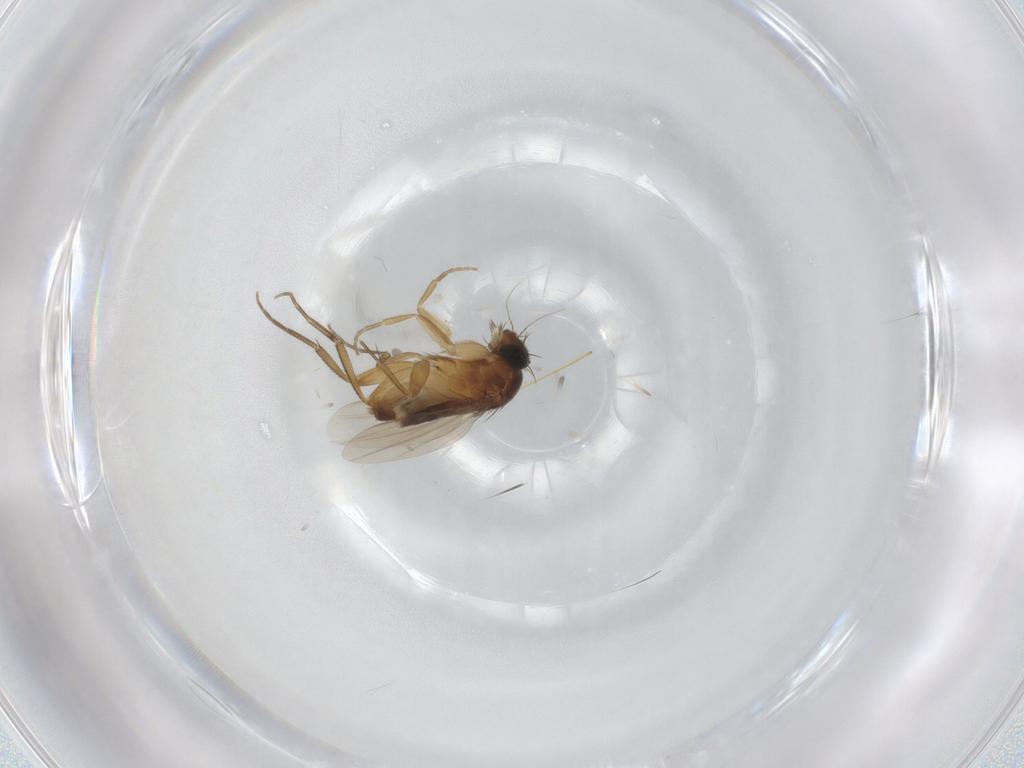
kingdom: Animalia
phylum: Arthropoda
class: Insecta
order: Diptera
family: Phoridae
